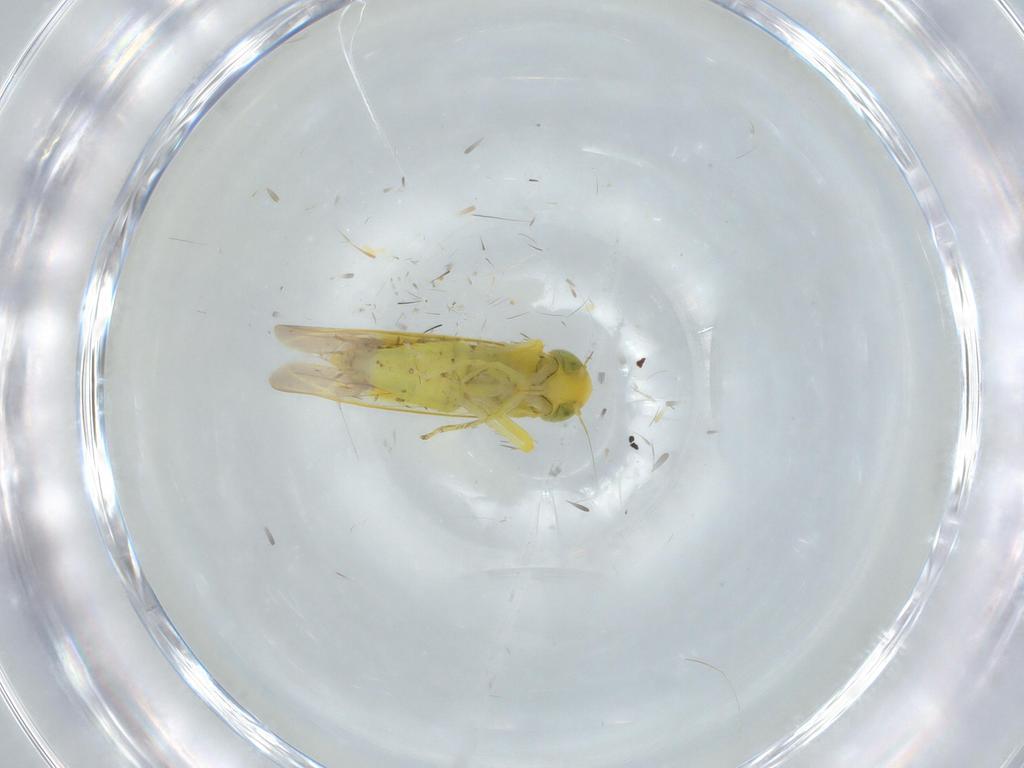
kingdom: Animalia
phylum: Arthropoda
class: Insecta
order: Hemiptera
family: Cicadellidae
